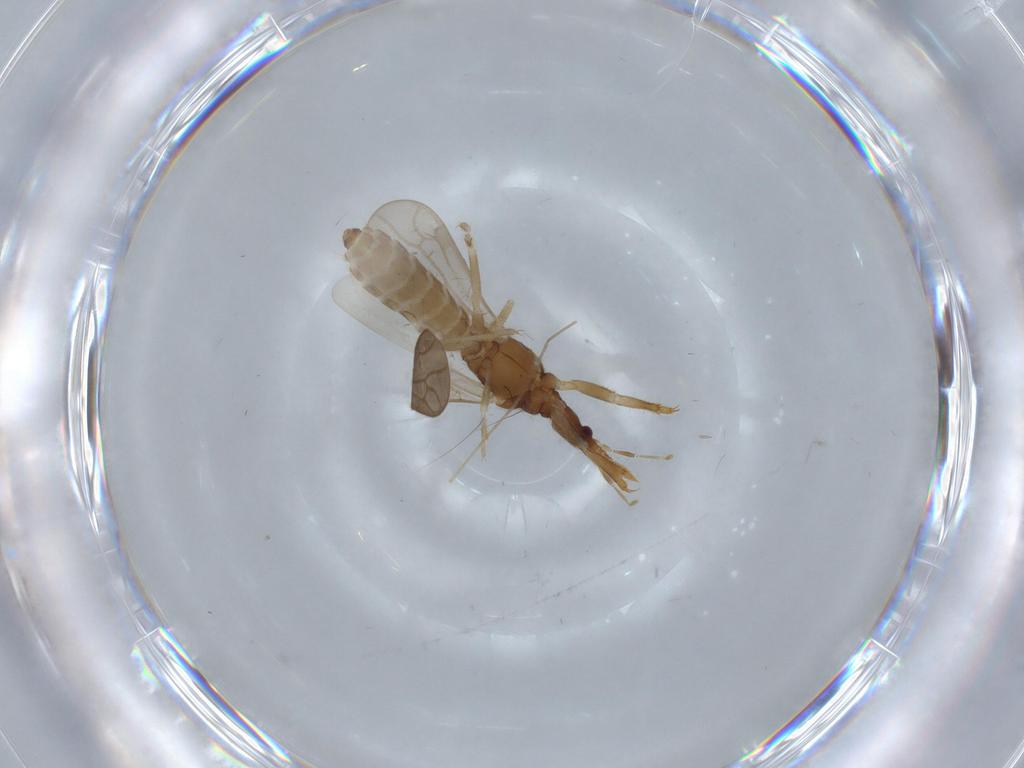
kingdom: Animalia
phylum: Arthropoda
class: Insecta
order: Hemiptera
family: Enicocephalidae
